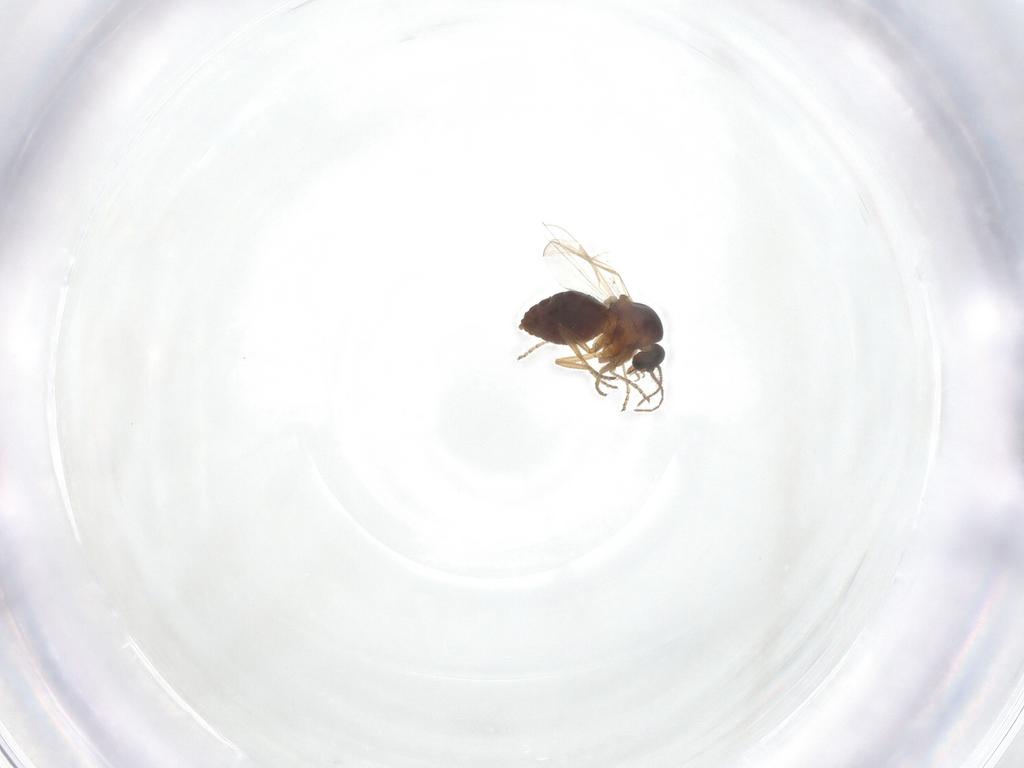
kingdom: Animalia
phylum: Arthropoda
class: Insecta
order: Diptera
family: Ceratopogonidae
